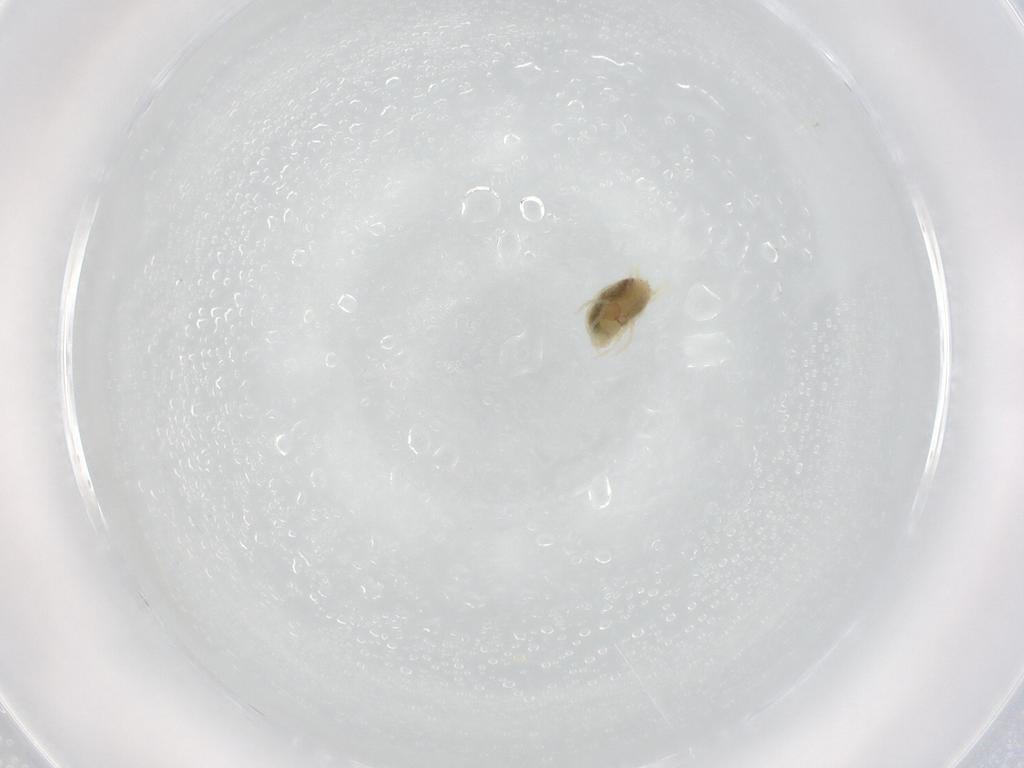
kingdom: Animalia
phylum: Arthropoda
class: Arachnida
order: Trombidiformes
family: Tetranychidae
